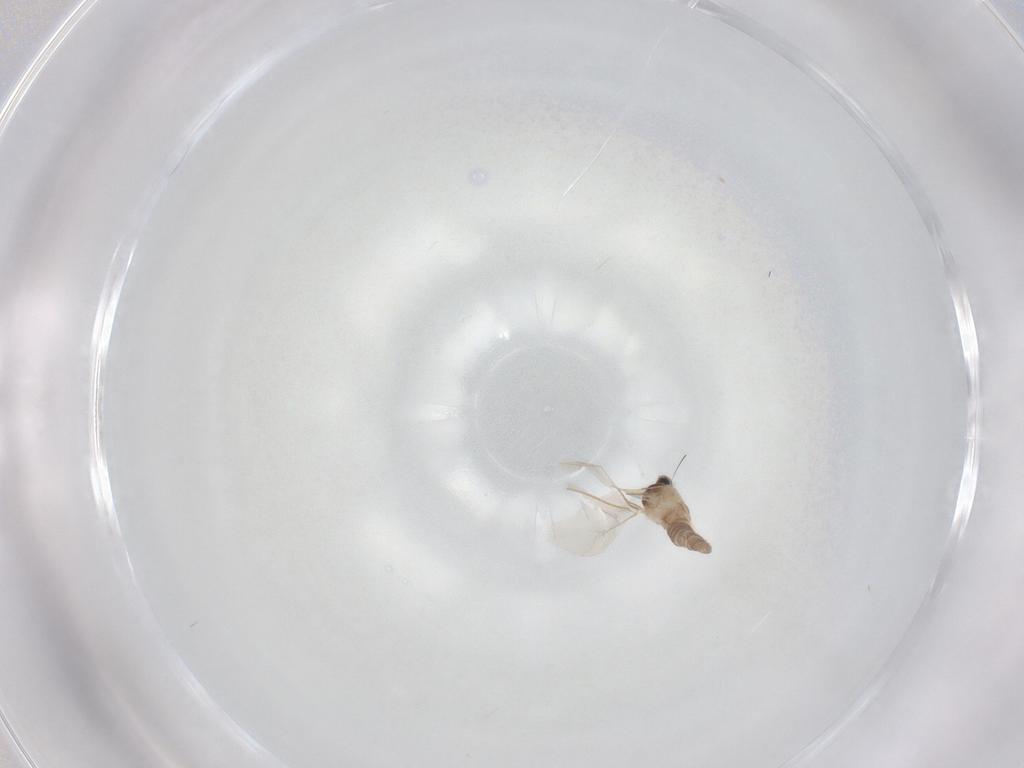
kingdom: Animalia
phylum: Arthropoda
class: Insecta
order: Diptera
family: Cecidomyiidae
